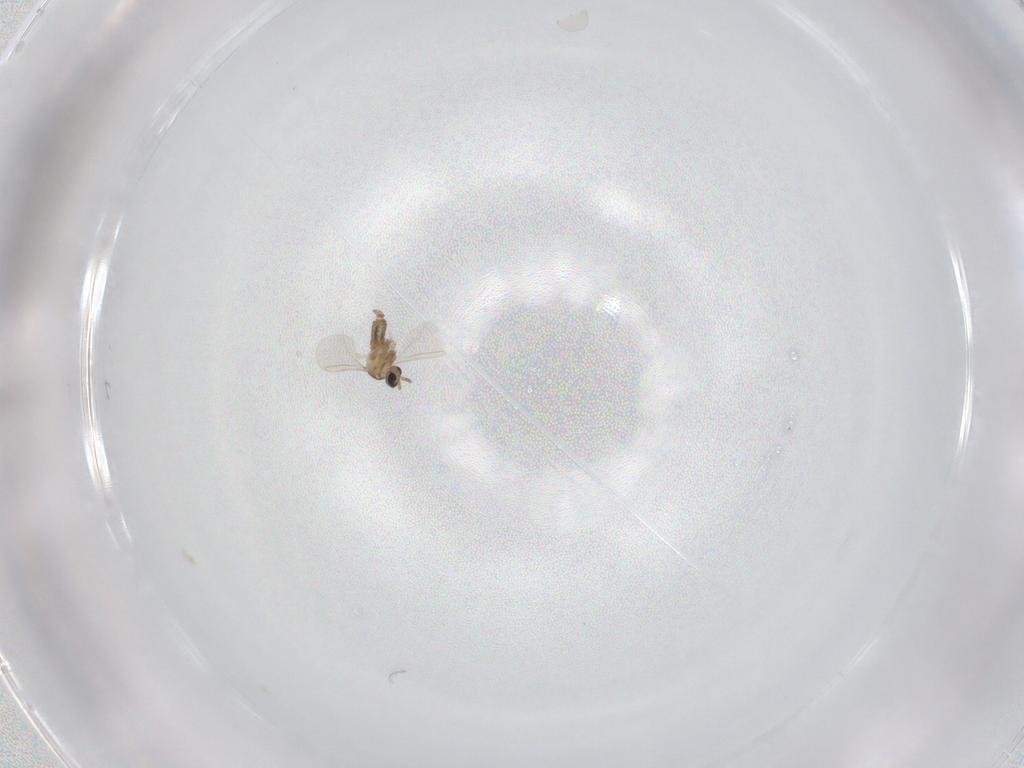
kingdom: Animalia
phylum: Arthropoda
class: Insecta
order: Diptera
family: Cecidomyiidae
